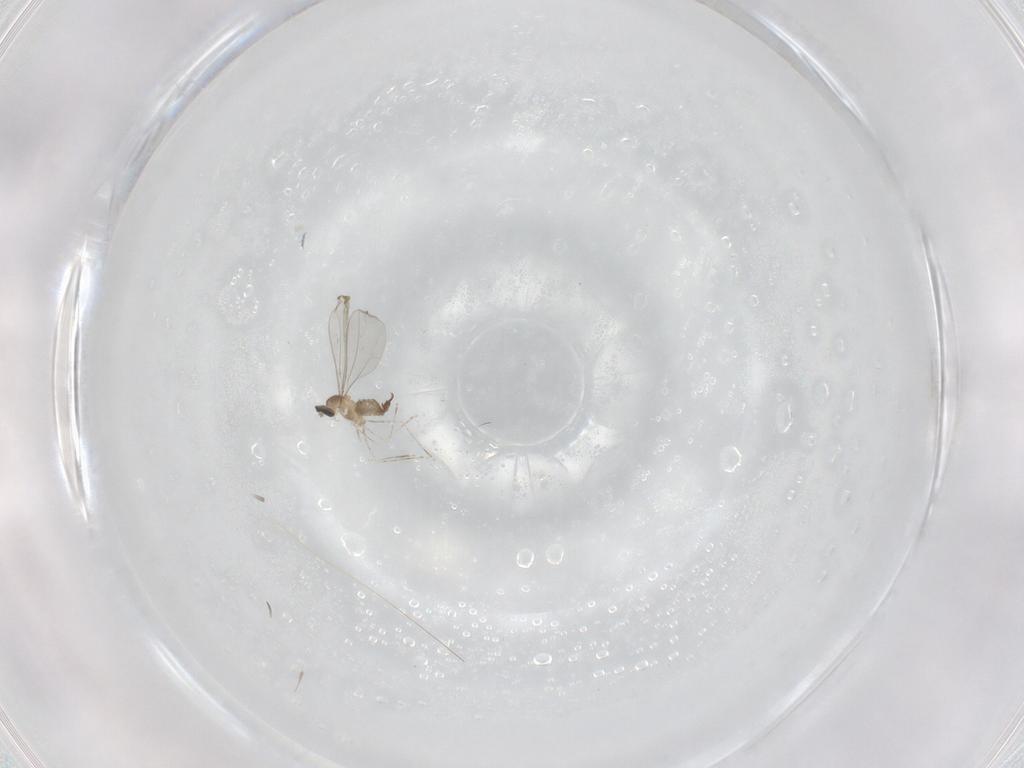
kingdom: Animalia
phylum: Arthropoda
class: Insecta
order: Diptera
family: Cecidomyiidae
